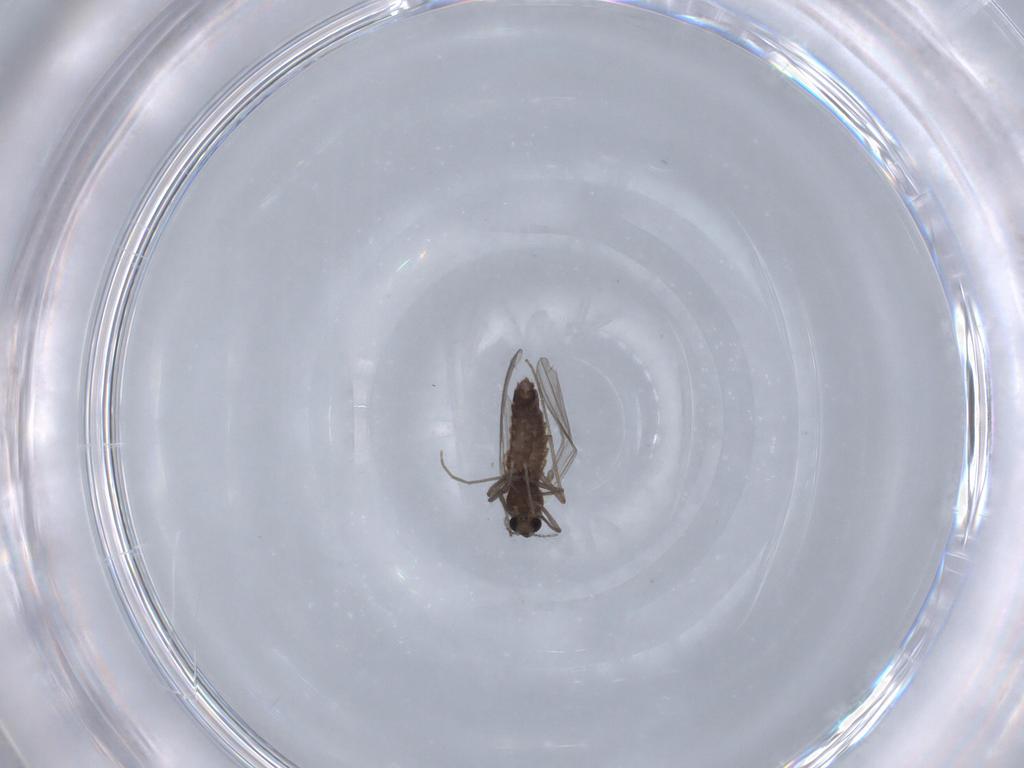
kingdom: Animalia
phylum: Arthropoda
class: Insecta
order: Diptera
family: Chironomidae
